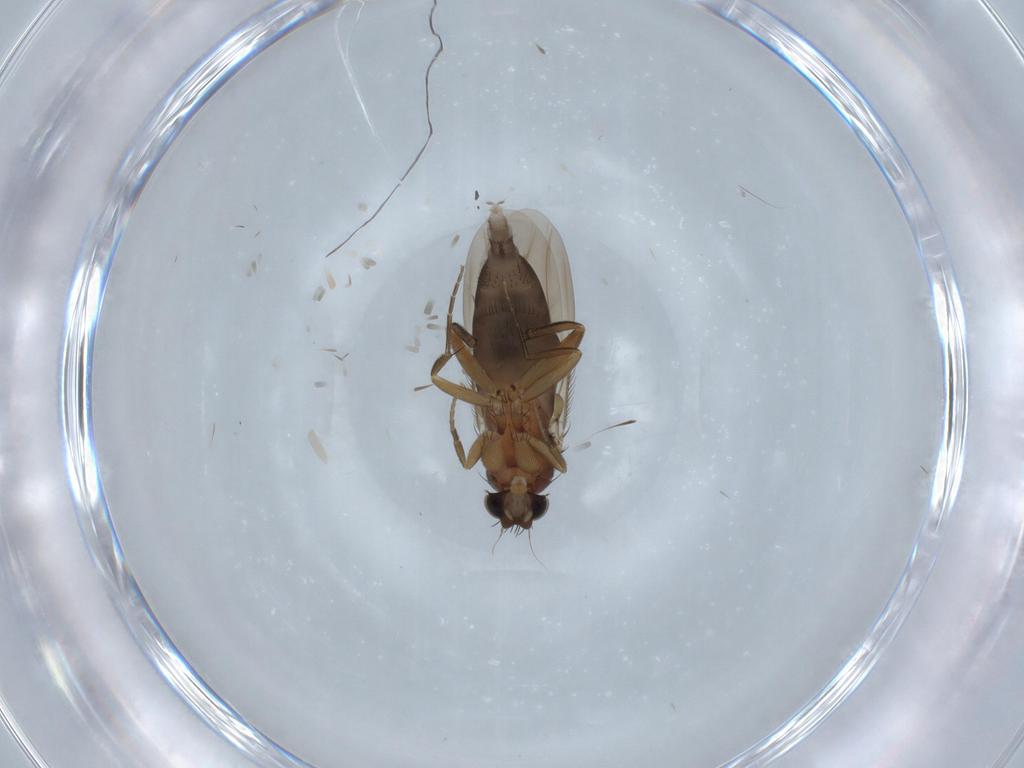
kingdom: Animalia
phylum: Arthropoda
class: Insecta
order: Diptera
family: Phoridae
